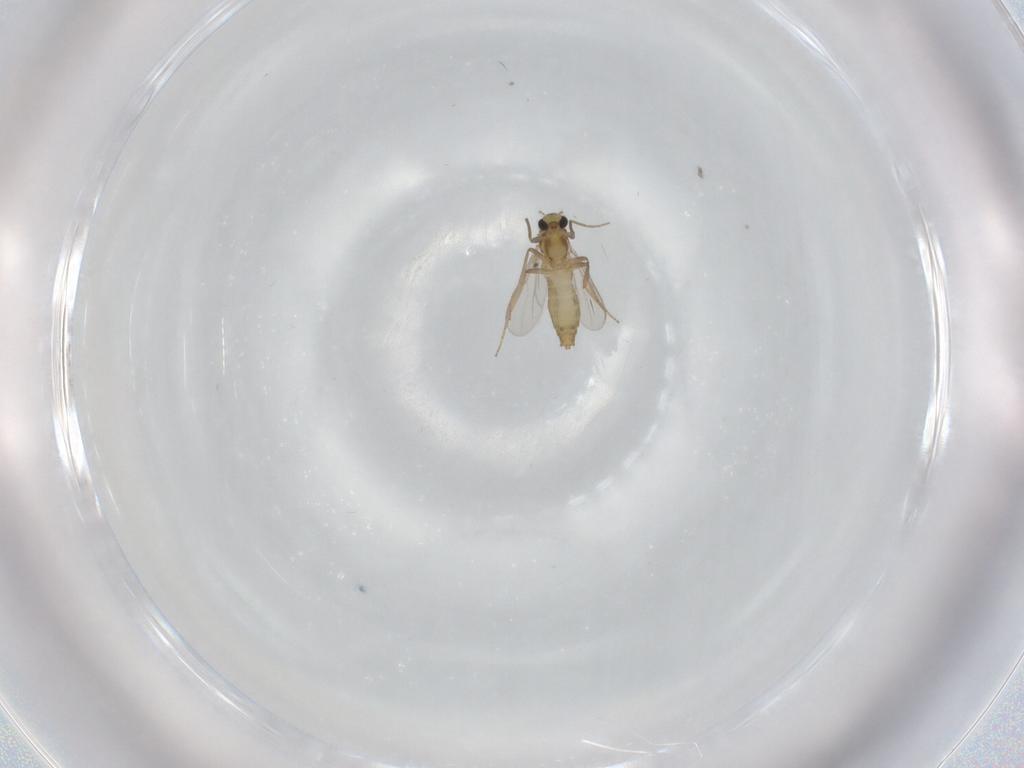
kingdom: Animalia
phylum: Arthropoda
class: Insecta
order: Diptera
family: Chironomidae
